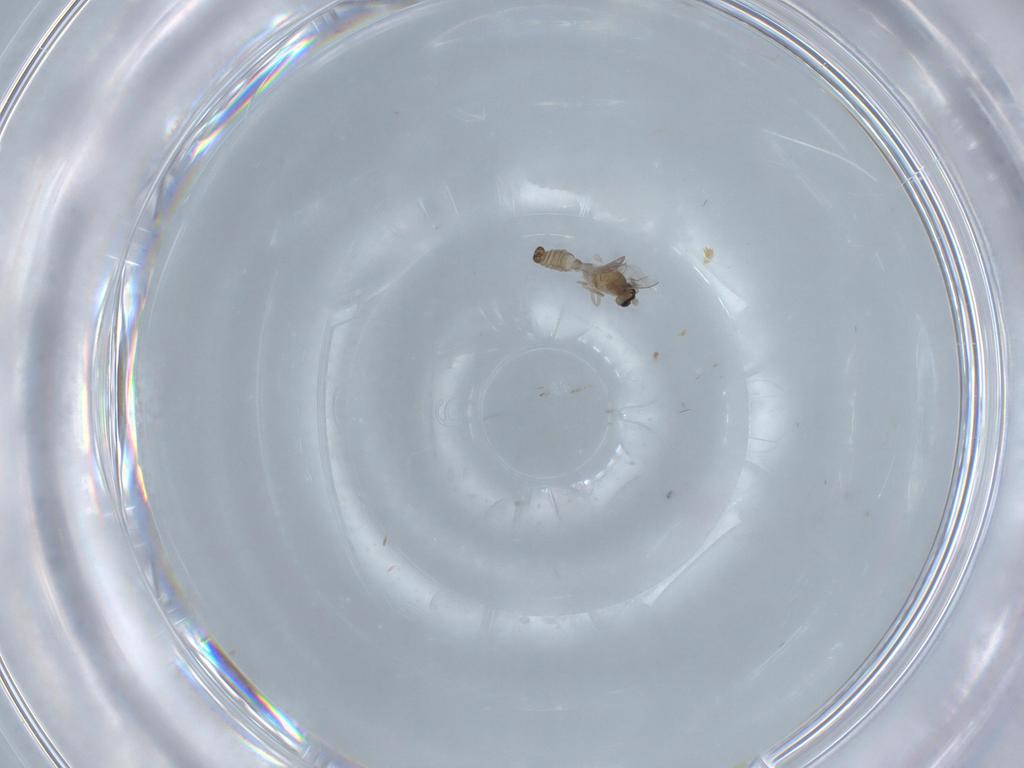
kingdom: Animalia
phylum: Arthropoda
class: Insecta
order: Diptera
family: Cecidomyiidae
